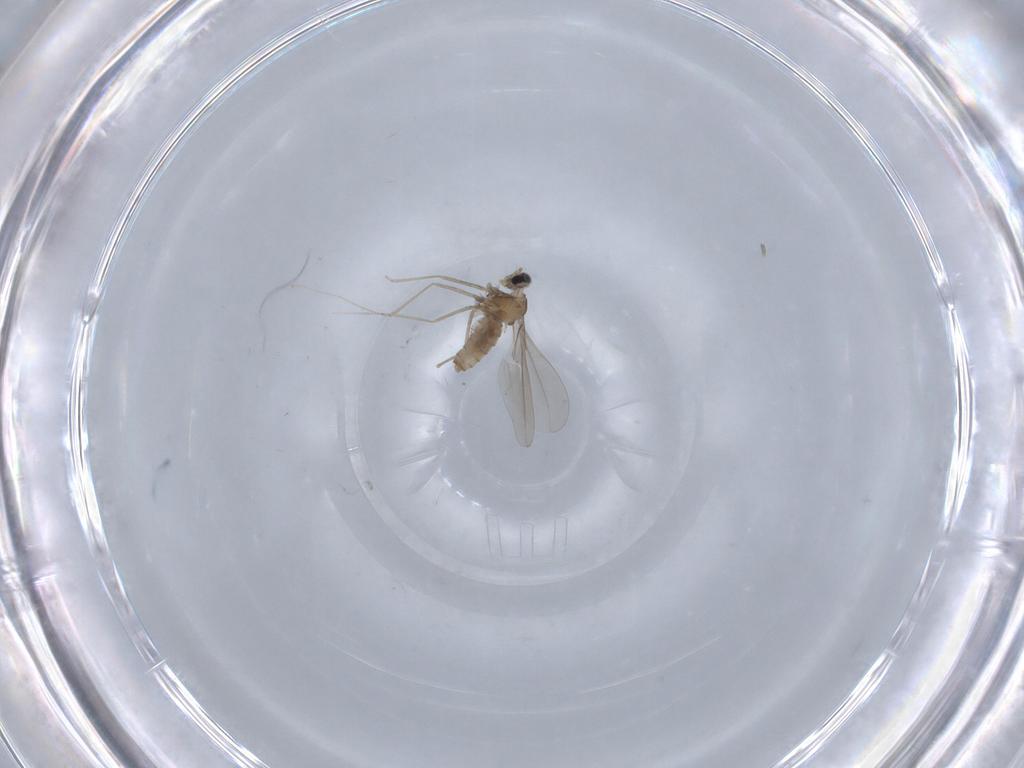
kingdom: Animalia
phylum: Arthropoda
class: Insecta
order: Diptera
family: Cecidomyiidae
